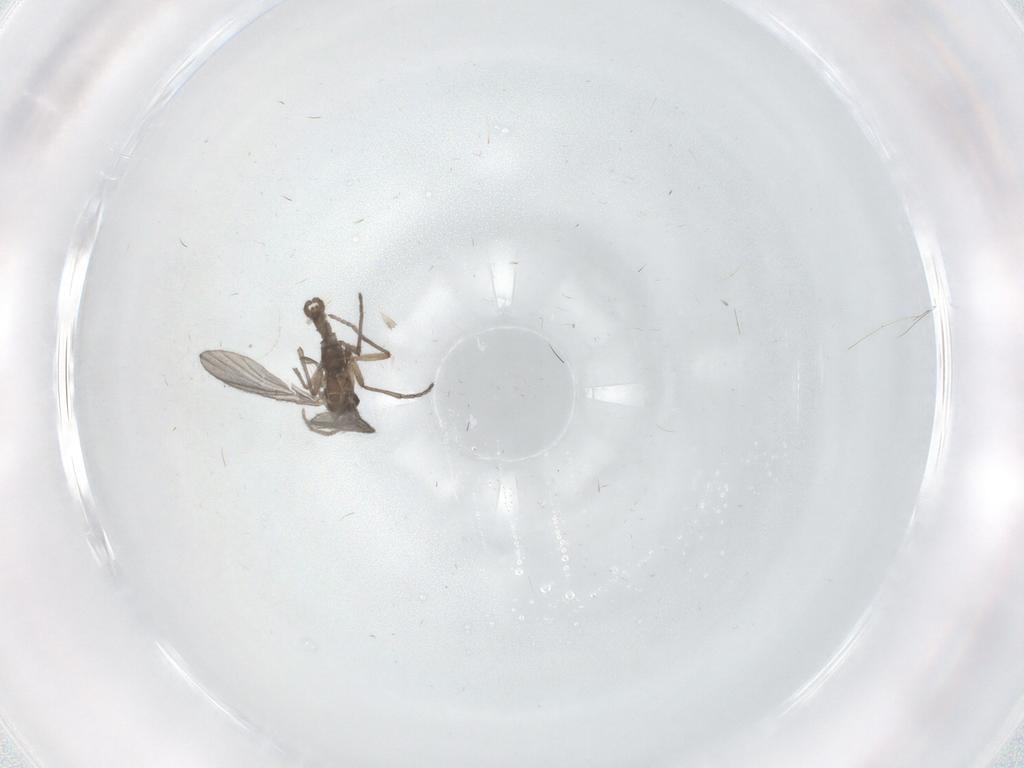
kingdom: Animalia
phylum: Arthropoda
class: Insecta
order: Diptera
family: Sciaridae
